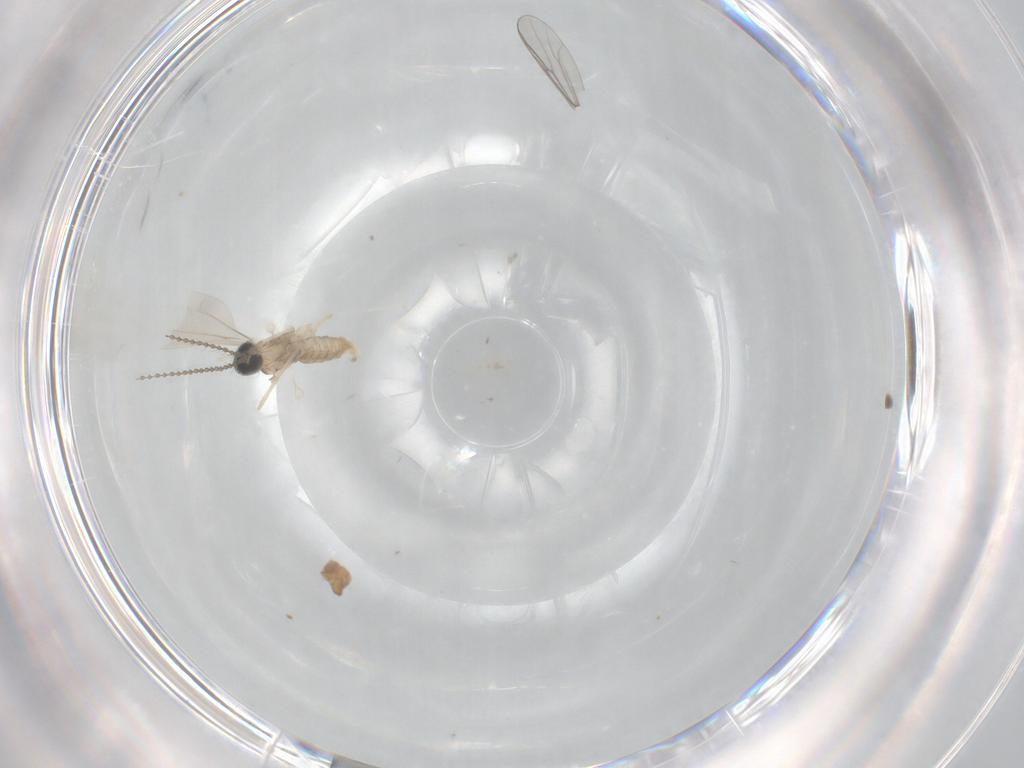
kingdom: Animalia
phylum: Arthropoda
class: Insecta
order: Diptera
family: Cecidomyiidae
